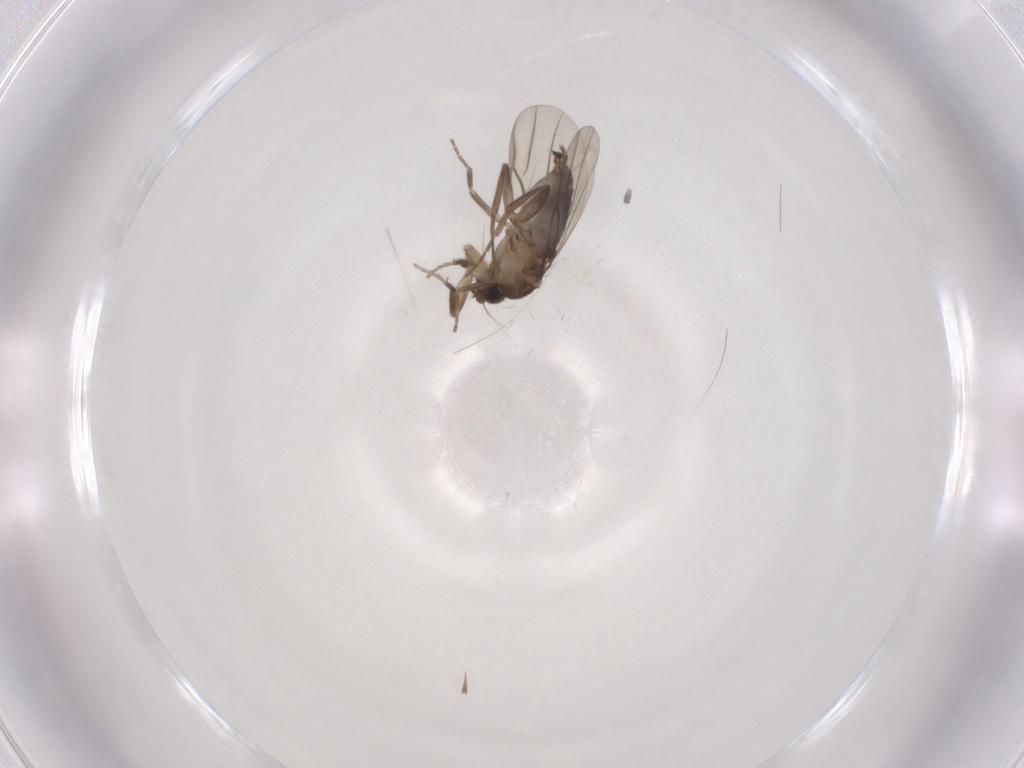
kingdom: Animalia
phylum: Arthropoda
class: Insecta
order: Diptera
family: Phoridae
